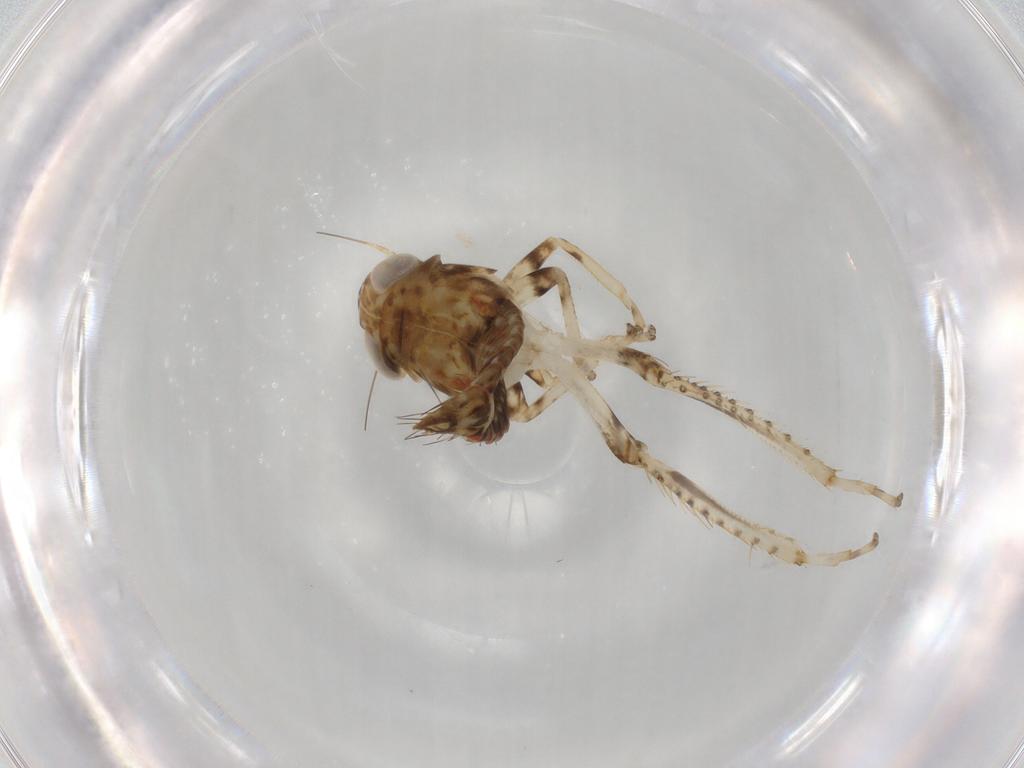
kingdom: Animalia
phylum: Arthropoda
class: Insecta
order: Hemiptera
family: Cicadellidae
